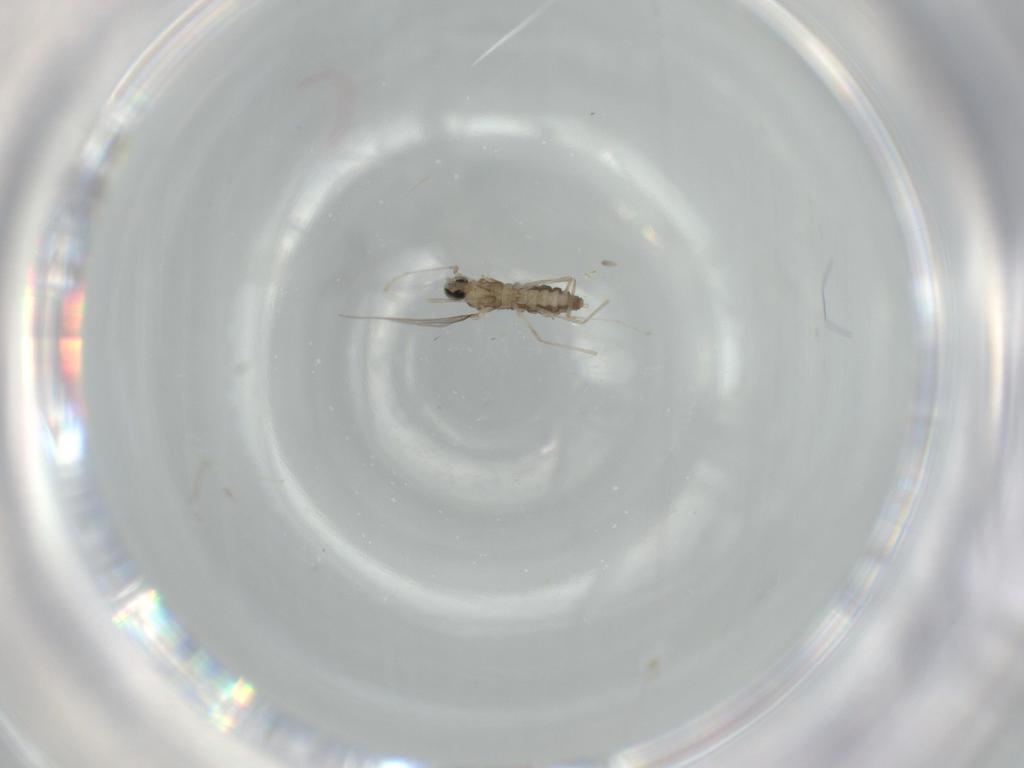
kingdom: Animalia
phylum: Arthropoda
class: Insecta
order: Diptera
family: Cecidomyiidae
